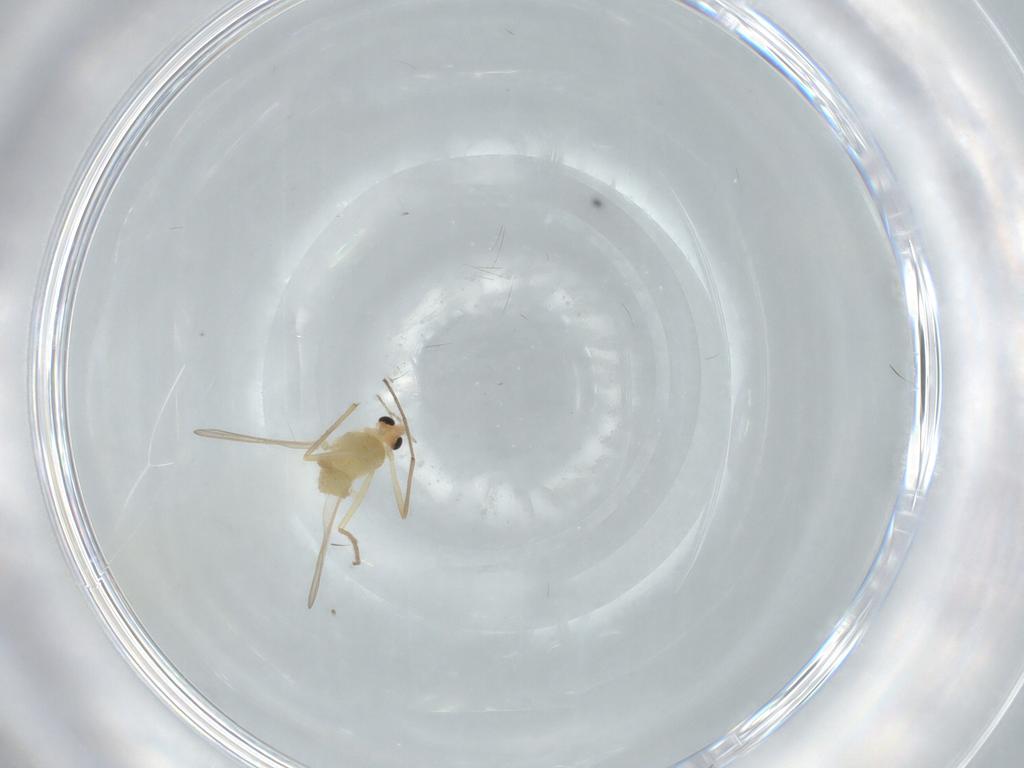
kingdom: Animalia
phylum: Arthropoda
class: Insecta
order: Diptera
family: Chironomidae
